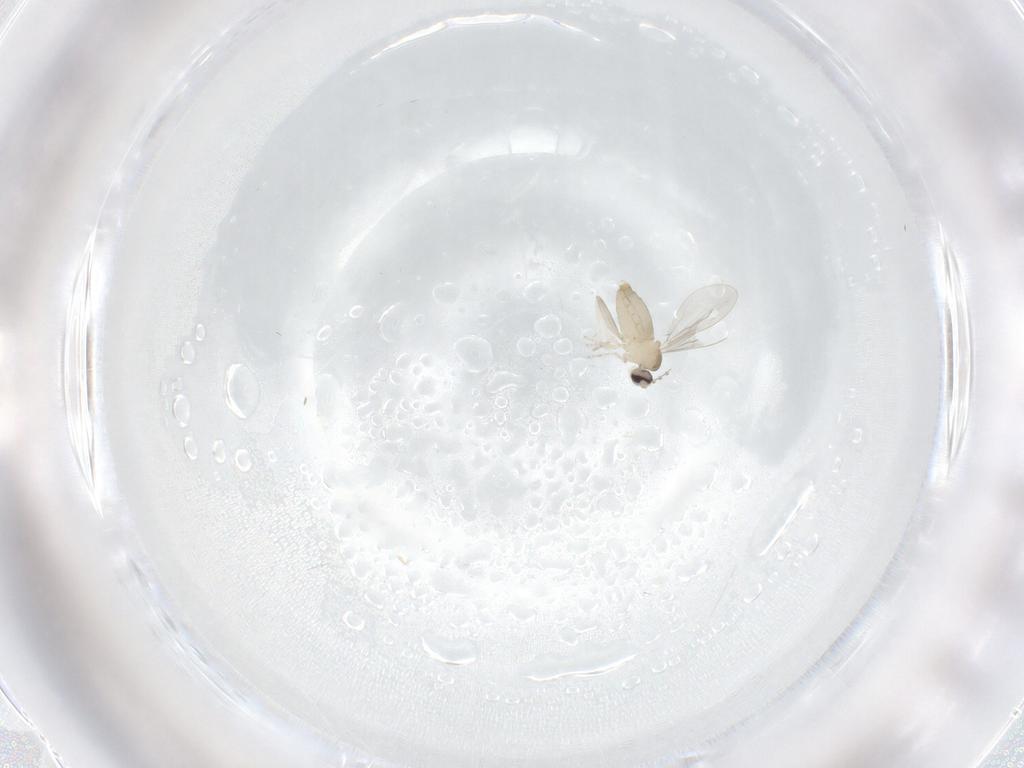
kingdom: Animalia
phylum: Arthropoda
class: Insecta
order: Diptera
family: Cecidomyiidae
